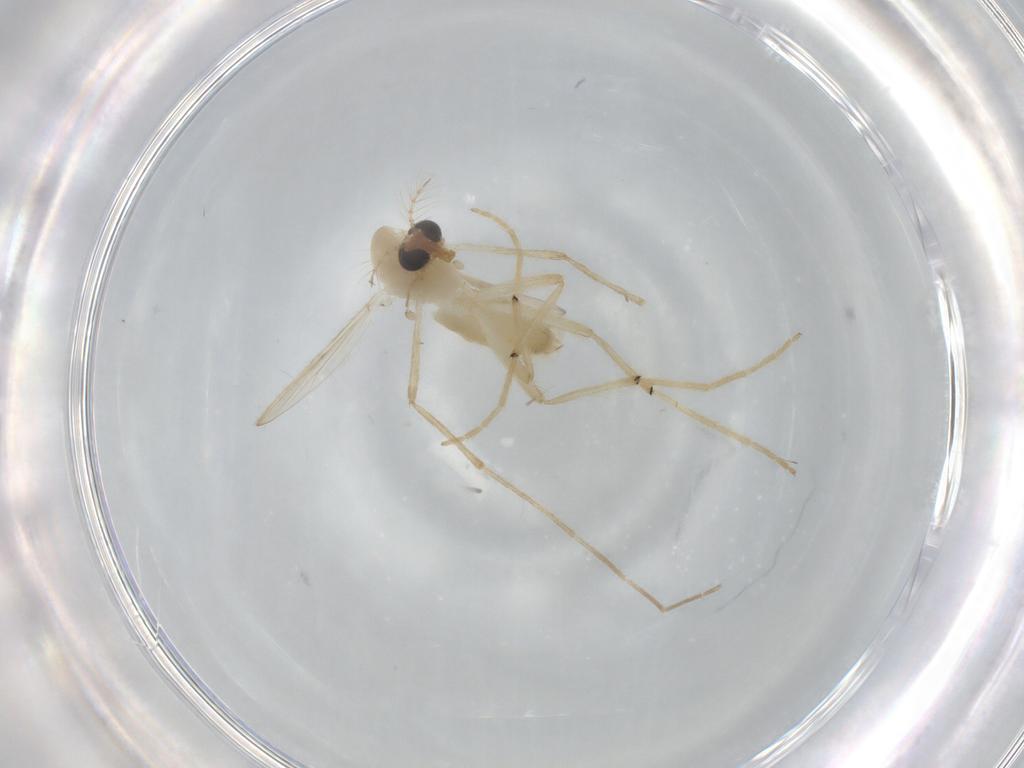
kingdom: Animalia
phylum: Arthropoda
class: Insecta
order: Diptera
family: Chironomidae
